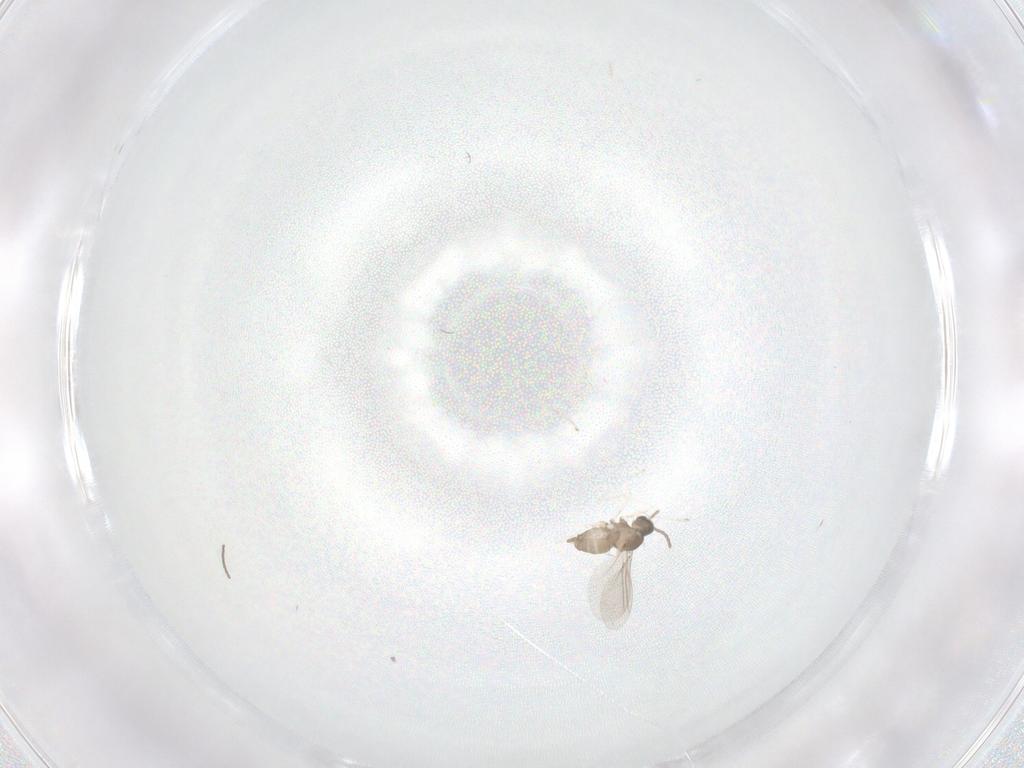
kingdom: Animalia
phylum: Arthropoda
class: Insecta
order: Diptera
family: Cecidomyiidae
